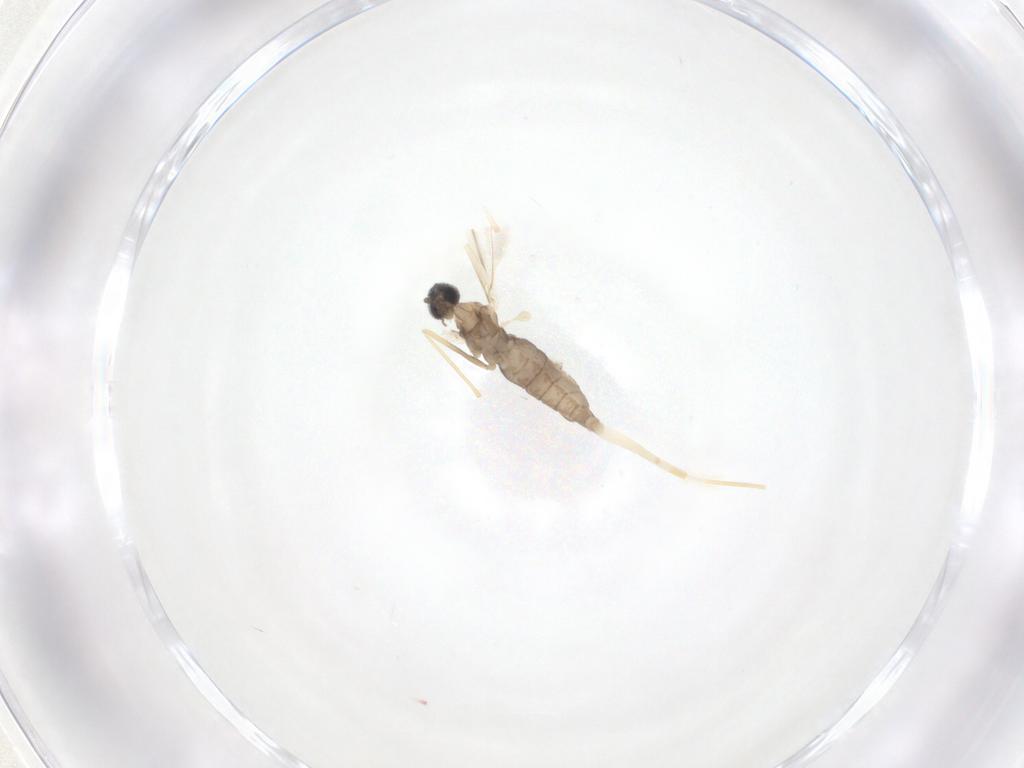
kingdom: Animalia
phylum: Arthropoda
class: Insecta
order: Diptera
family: Cecidomyiidae
